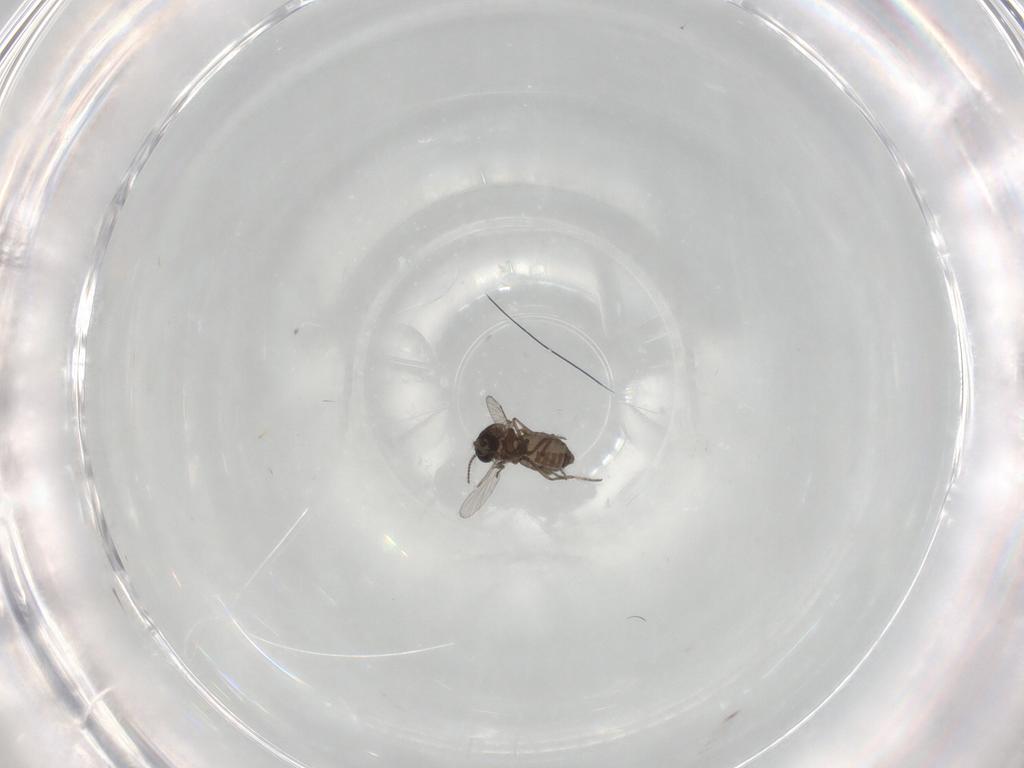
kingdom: Animalia
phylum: Arthropoda
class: Insecta
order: Diptera
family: Ceratopogonidae
